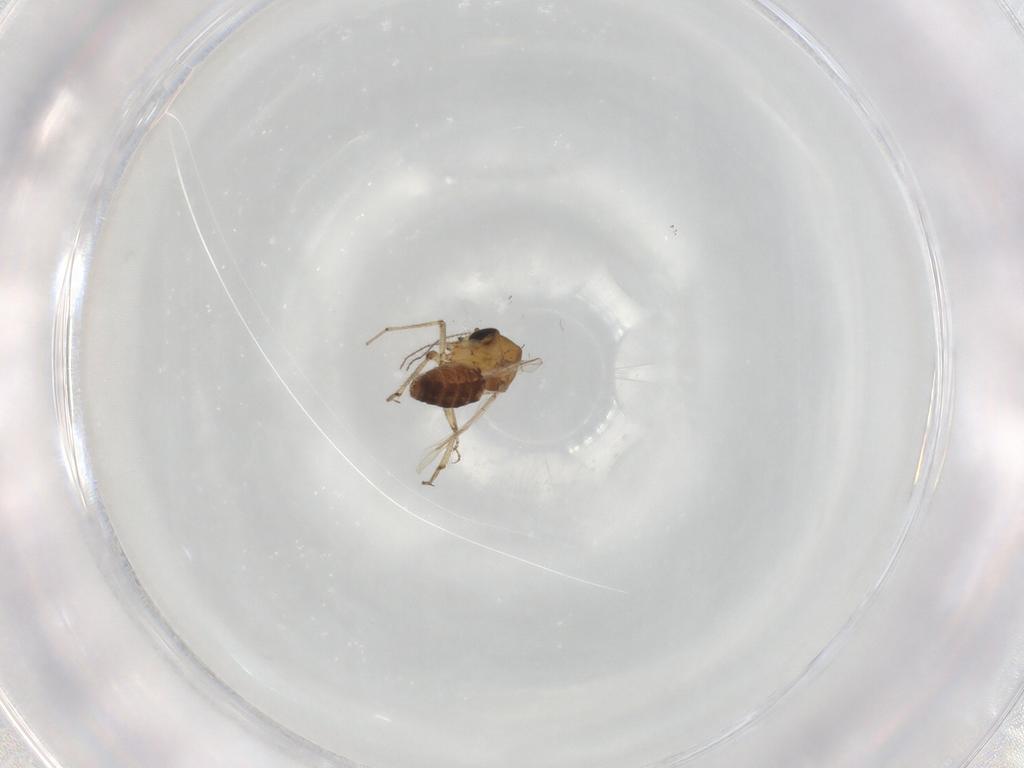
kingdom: Animalia
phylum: Arthropoda
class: Insecta
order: Diptera
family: Ceratopogonidae
